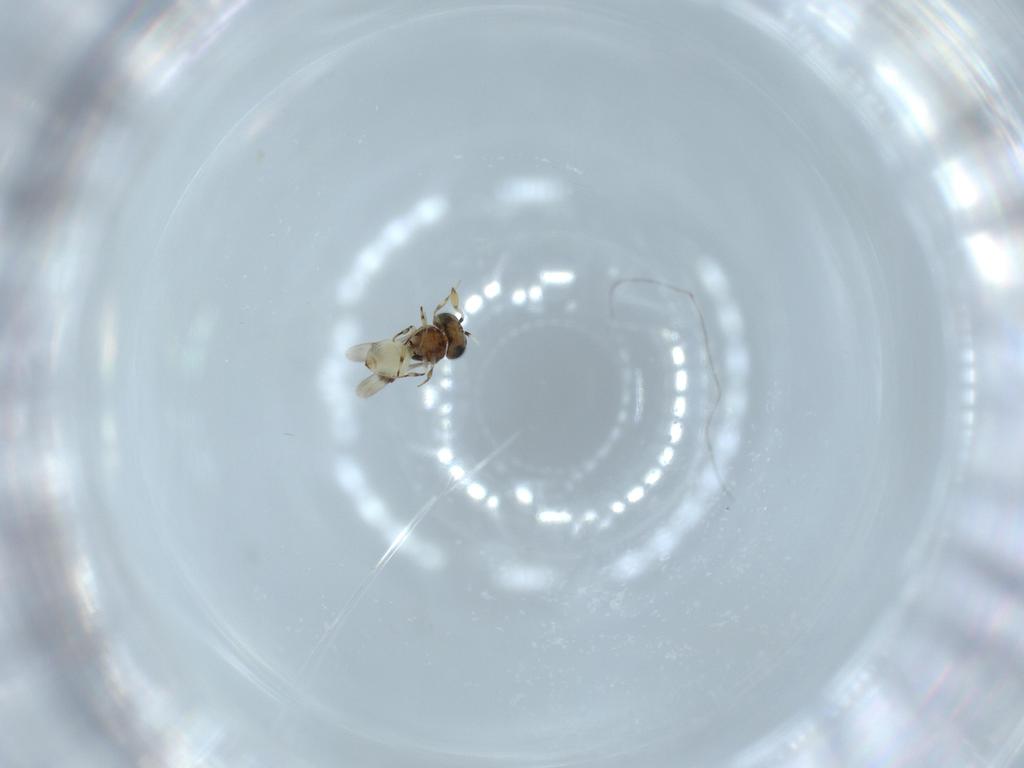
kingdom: Animalia
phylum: Arthropoda
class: Insecta
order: Hymenoptera
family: Scelionidae
